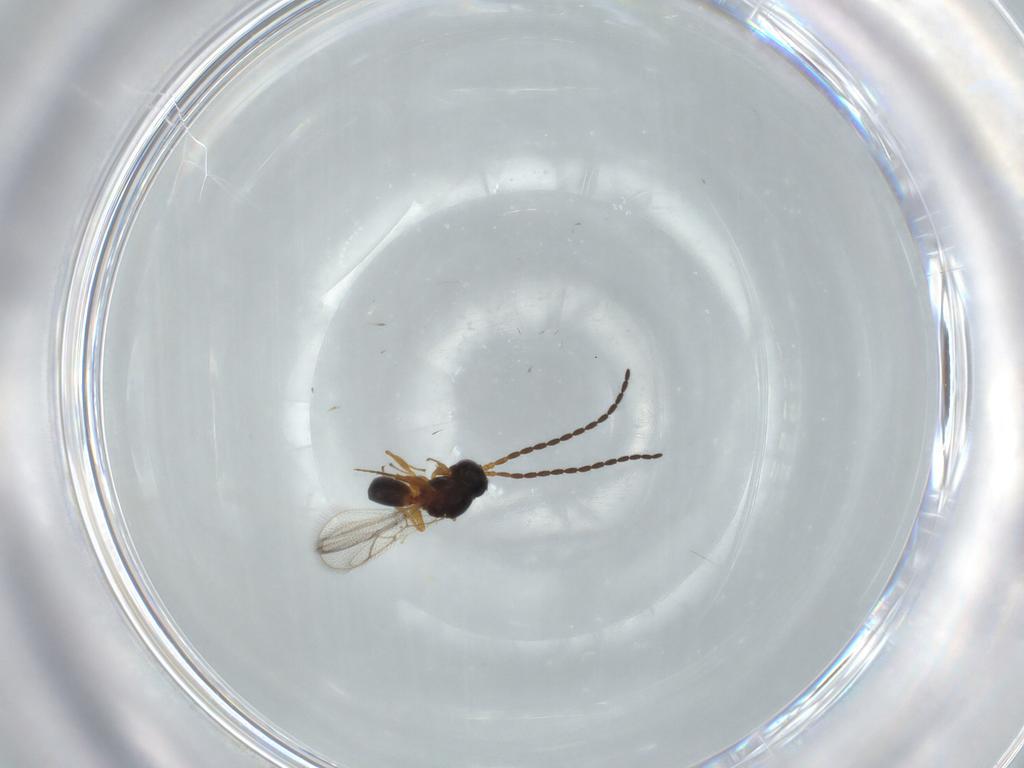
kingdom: Animalia
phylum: Arthropoda
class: Insecta
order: Hymenoptera
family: Figitidae
